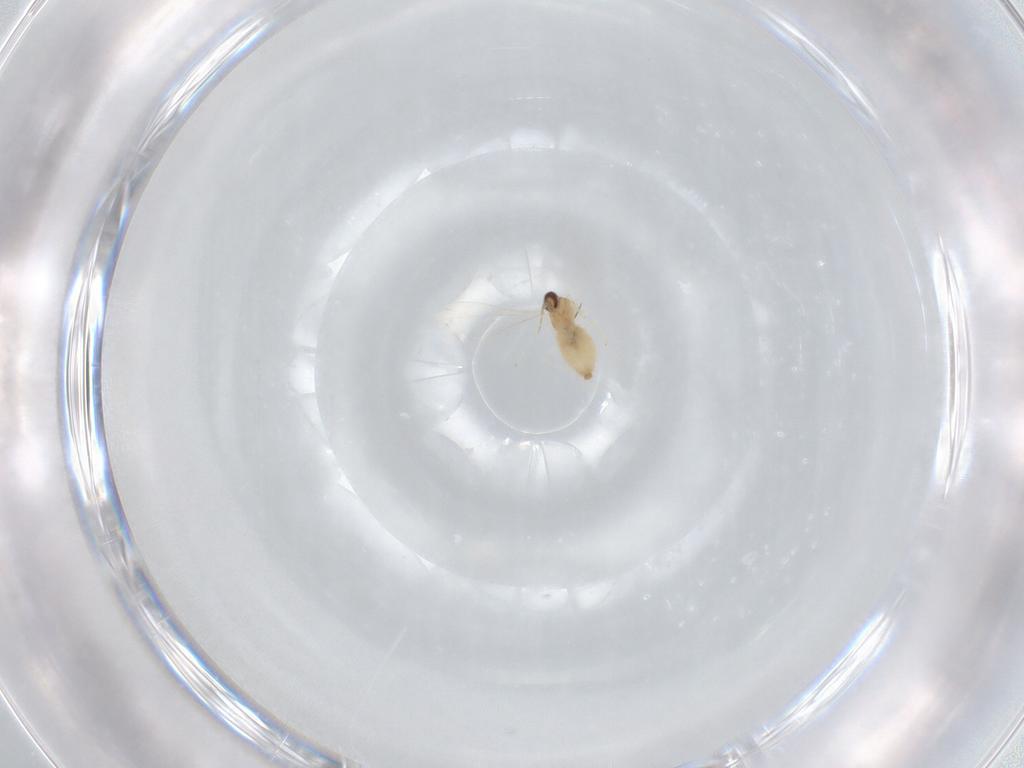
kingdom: Animalia
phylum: Arthropoda
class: Insecta
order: Diptera
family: Cecidomyiidae
